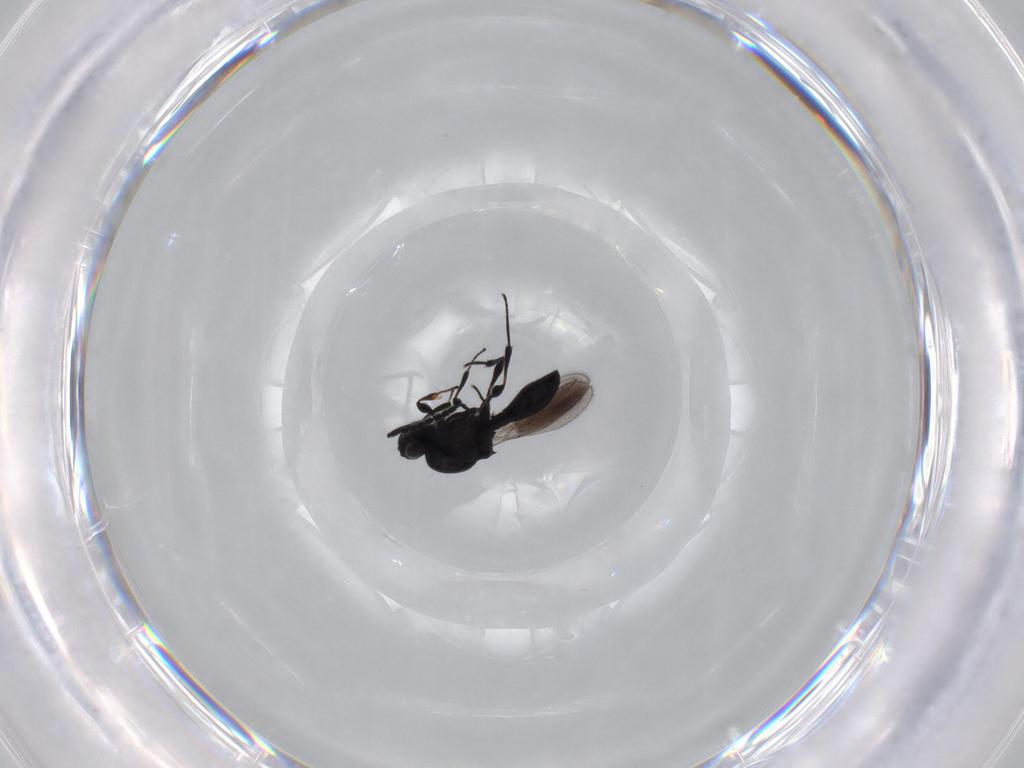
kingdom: Animalia
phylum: Arthropoda
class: Insecta
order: Hymenoptera
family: Platygastridae
